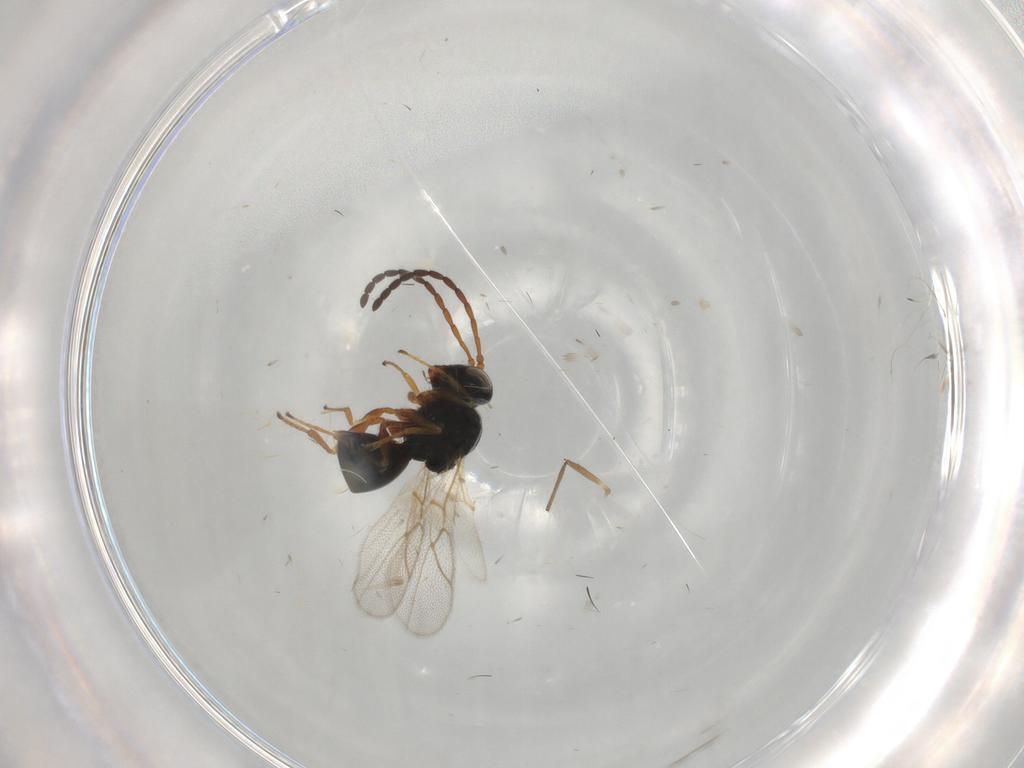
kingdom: Animalia
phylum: Arthropoda
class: Insecta
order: Hymenoptera
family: Figitidae
